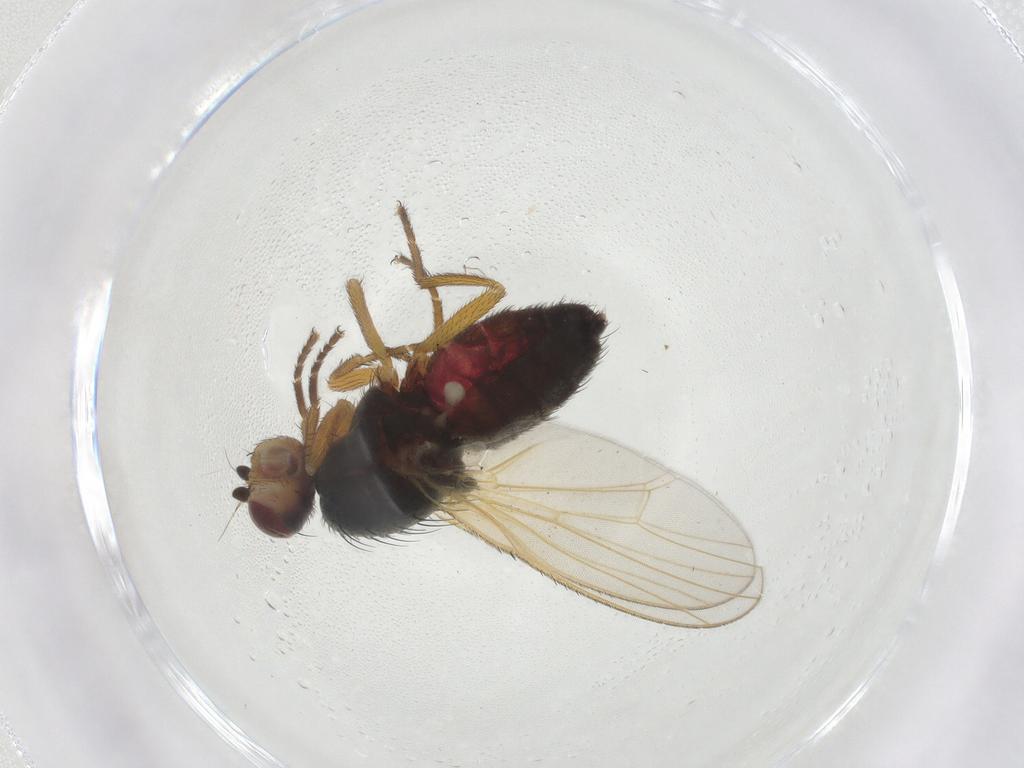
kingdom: Animalia
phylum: Arthropoda
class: Insecta
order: Diptera
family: Heleomyzidae
